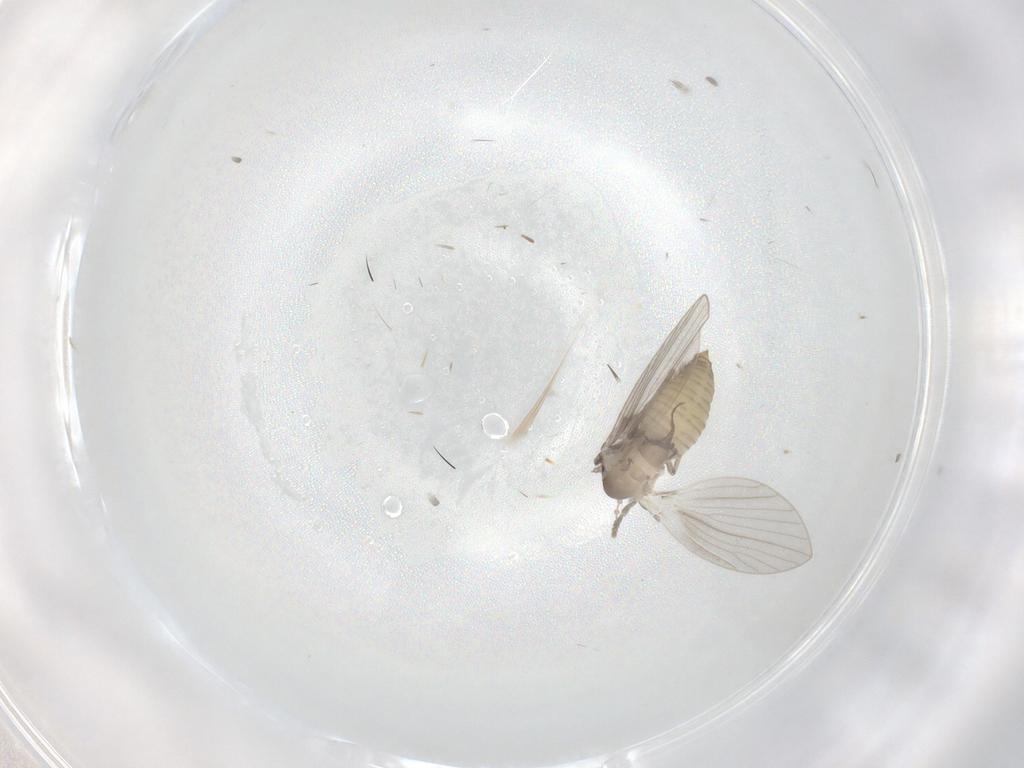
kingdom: Animalia
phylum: Arthropoda
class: Insecta
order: Diptera
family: Psychodidae
